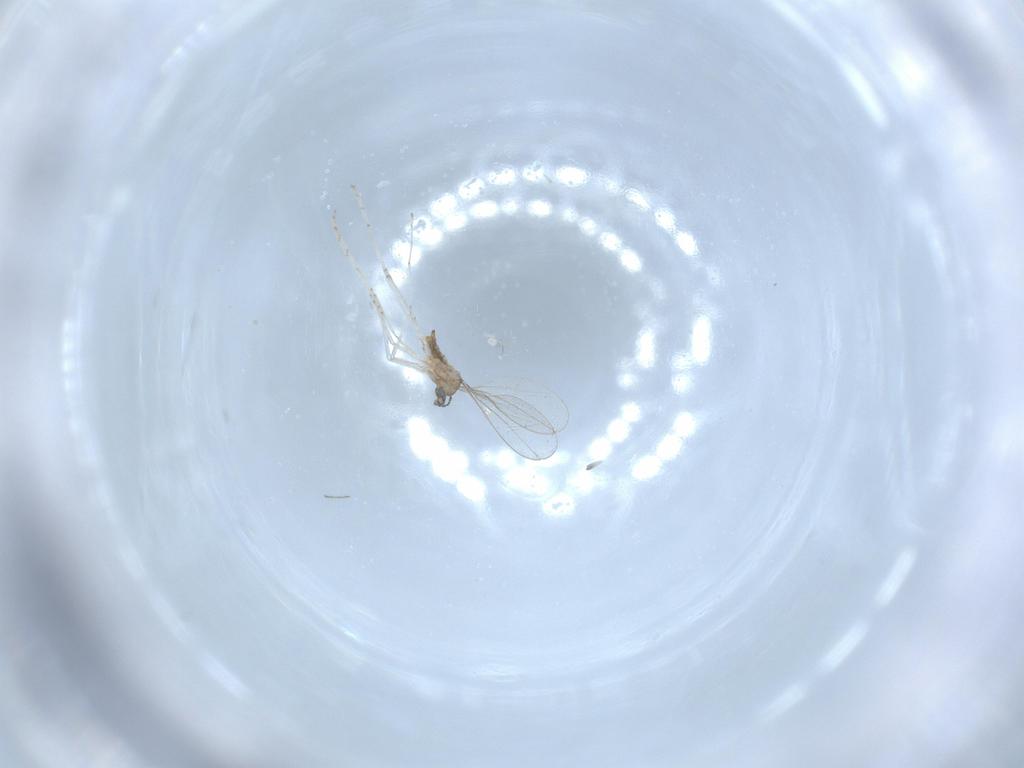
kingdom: Animalia
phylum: Arthropoda
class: Insecta
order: Diptera
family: Cecidomyiidae
